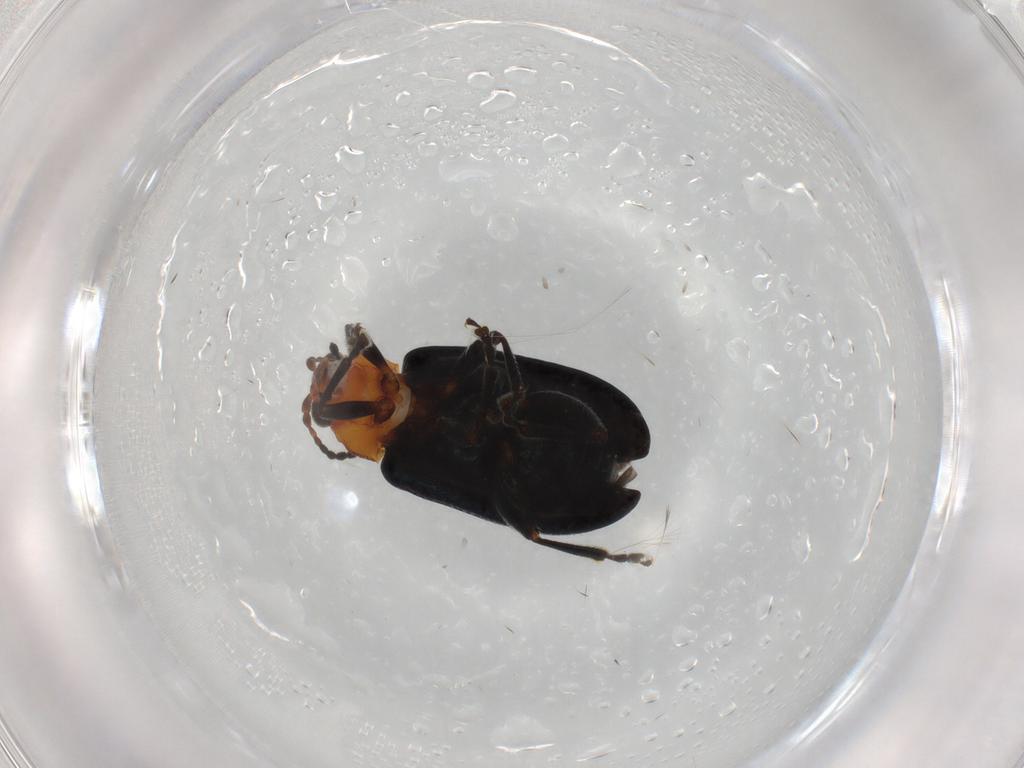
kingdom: Animalia
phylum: Arthropoda
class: Insecta
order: Coleoptera
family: Chrysomelidae
